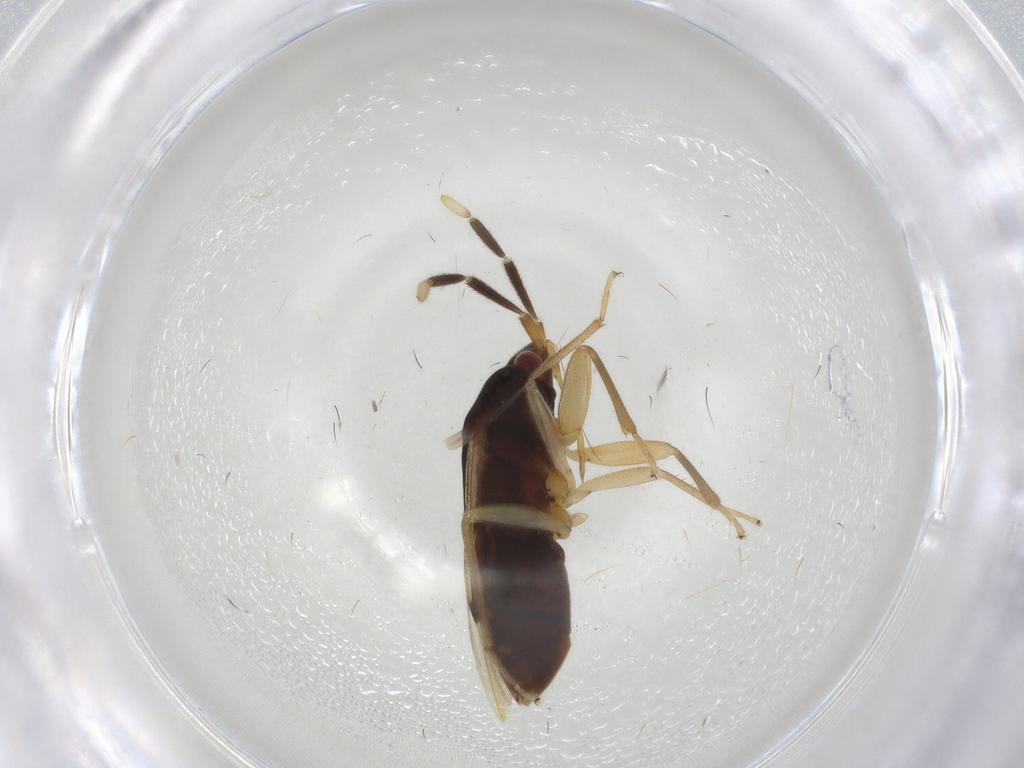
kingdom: Animalia
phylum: Arthropoda
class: Insecta
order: Hemiptera
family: Rhyparochromidae
